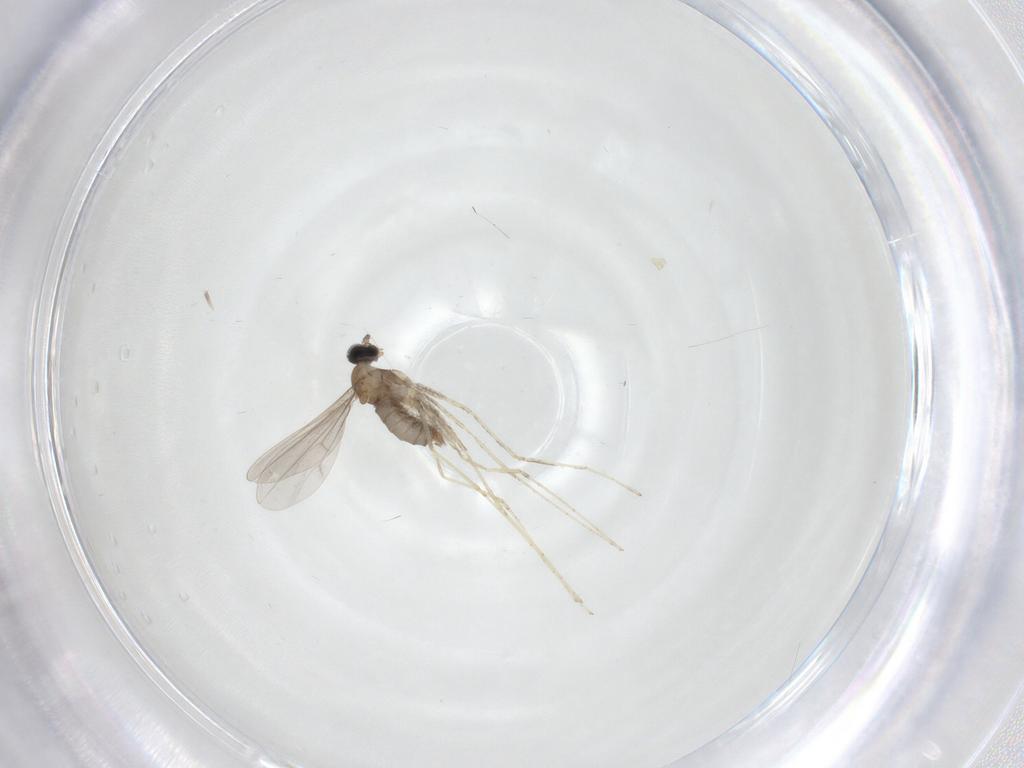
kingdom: Animalia
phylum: Arthropoda
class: Insecta
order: Diptera
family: Cecidomyiidae
